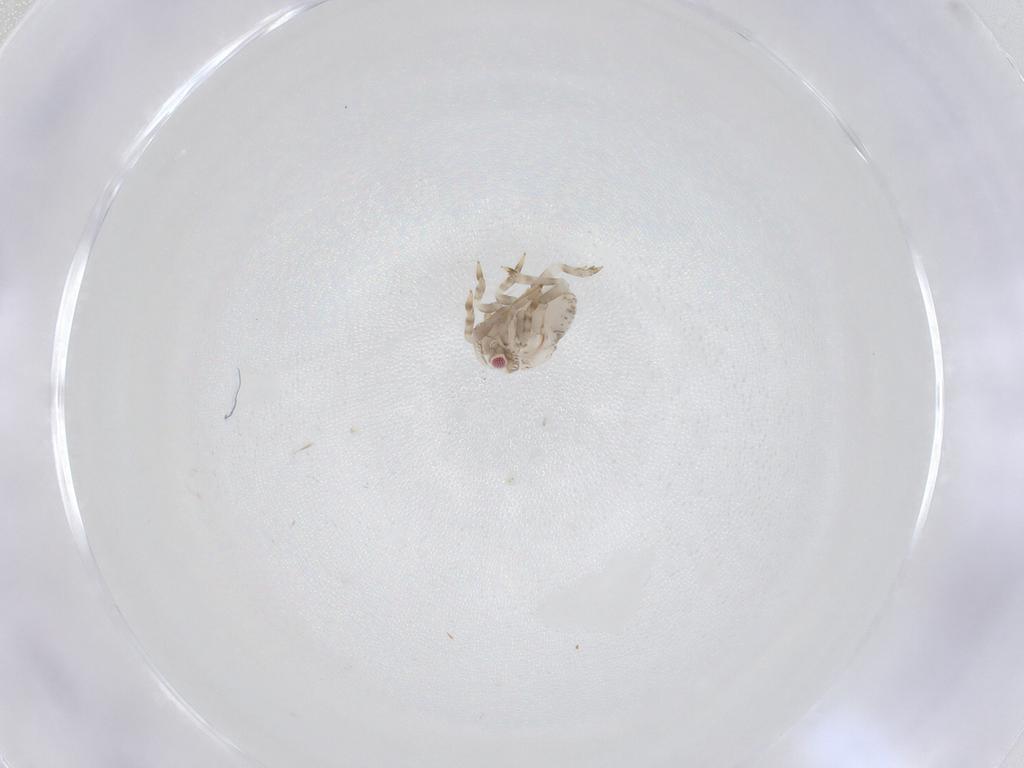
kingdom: Animalia
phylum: Arthropoda
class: Insecta
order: Hemiptera
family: Acanaloniidae
